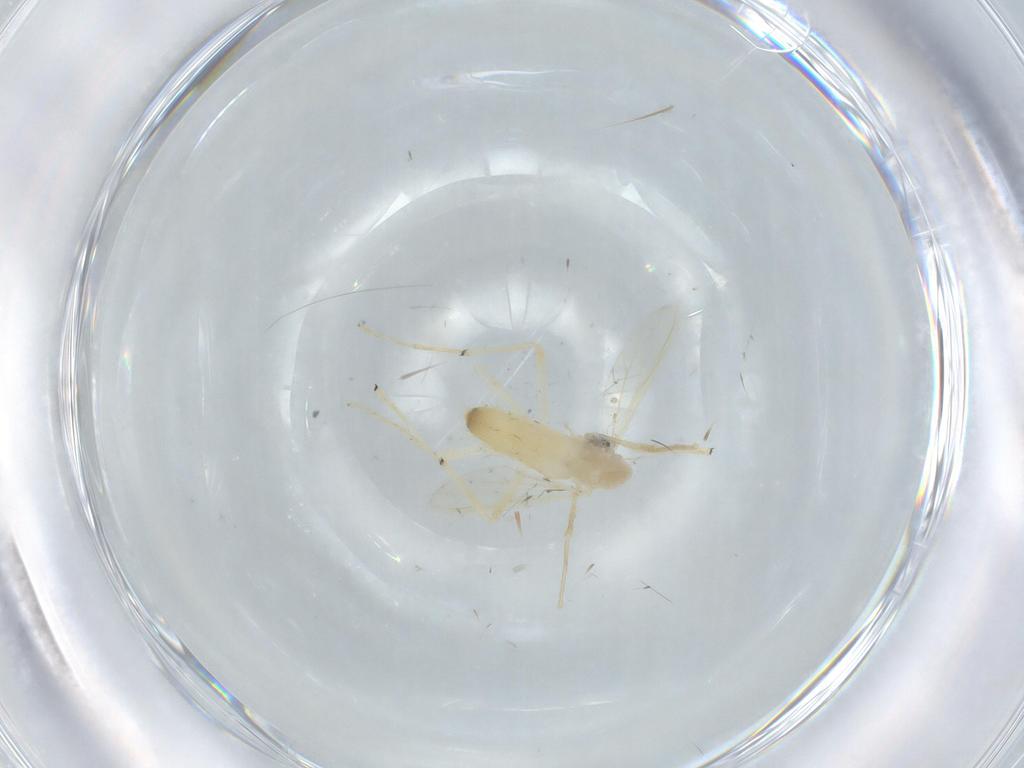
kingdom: Animalia
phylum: Arthropoda
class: Insecta
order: Diptera
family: Chironomidae
